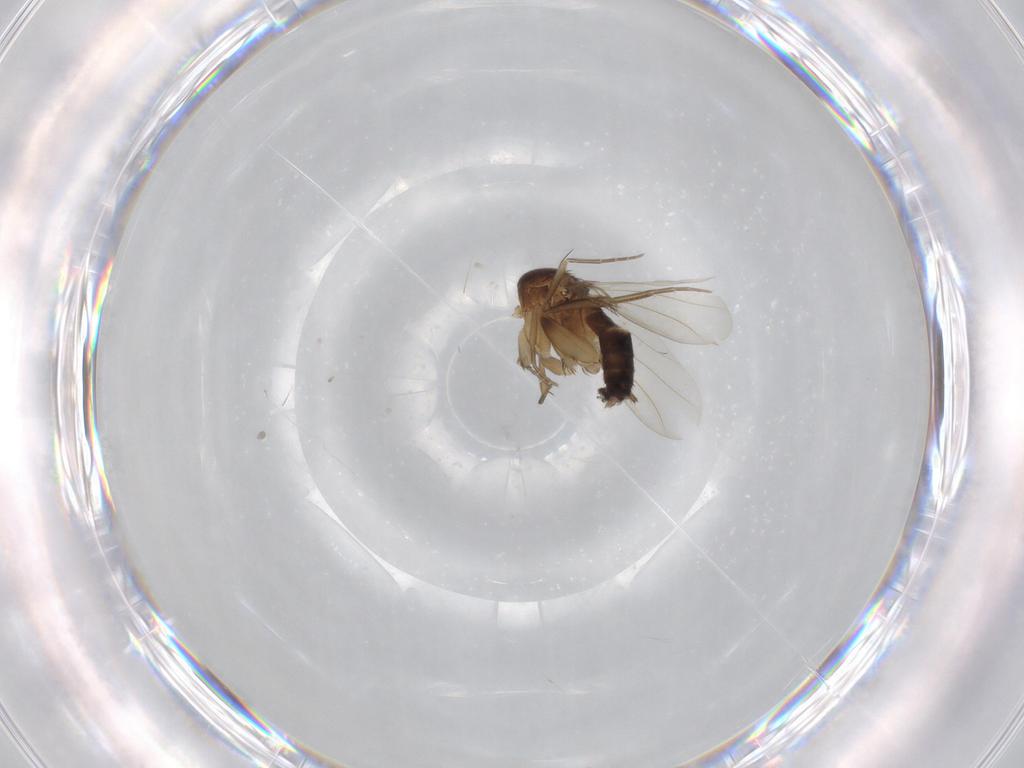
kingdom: Animalia
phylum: Arthropoda
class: Insecta
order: Diptera
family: Phoridae
